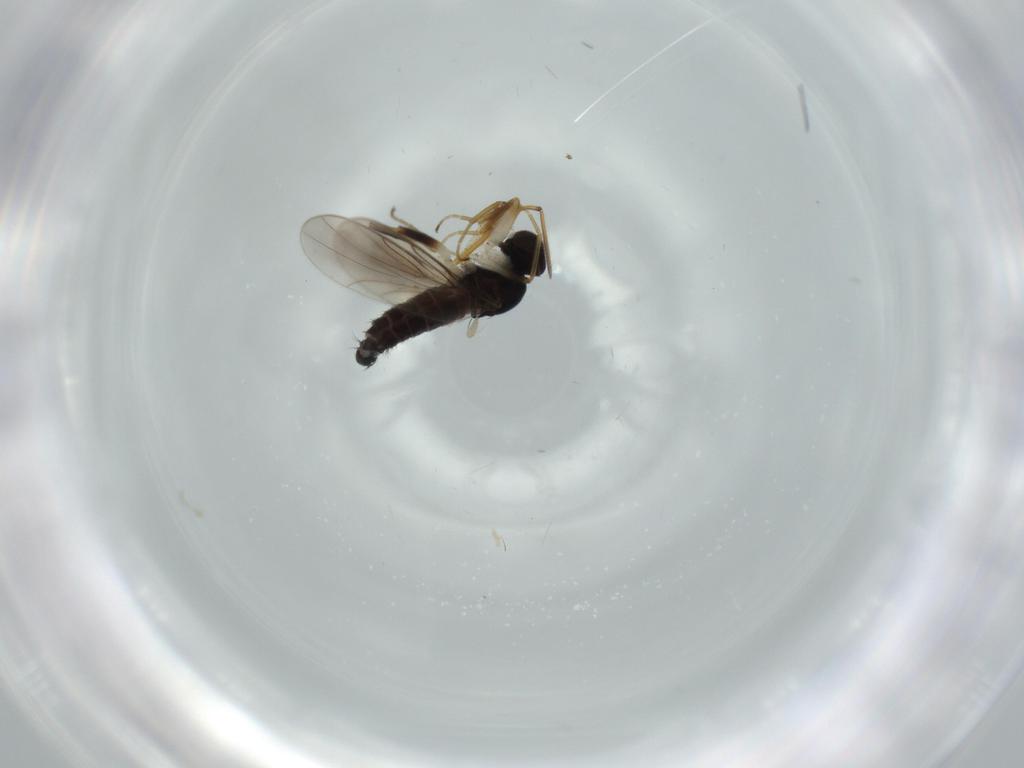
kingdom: Animalia
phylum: Arthropoda
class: Insecta
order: Diptera
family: Hybotidae
